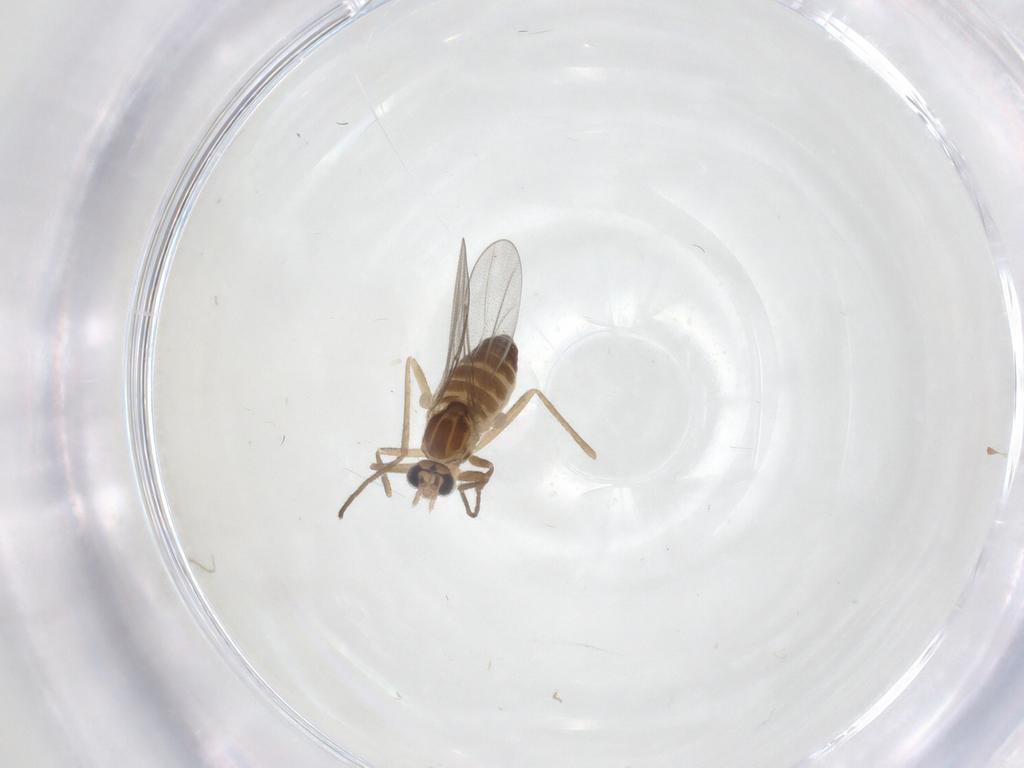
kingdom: Animalia
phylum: Arthropoda
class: Insecta
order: Diptera
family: Cecidomyiidae
